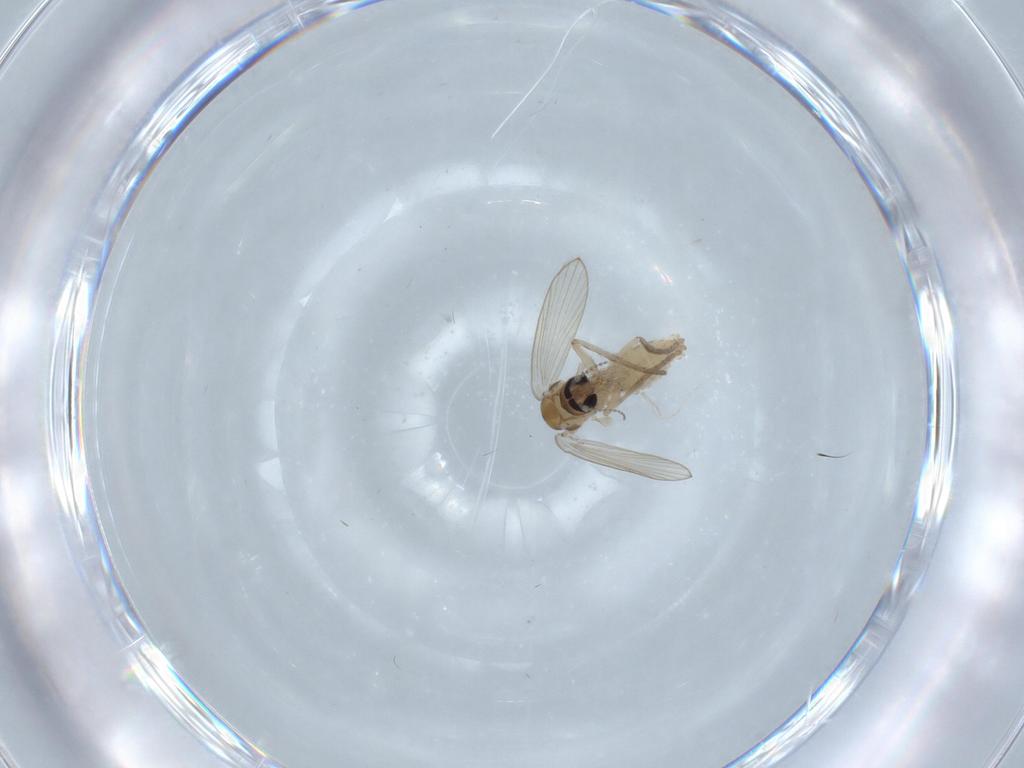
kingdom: Animalia
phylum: Arthropoda
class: Insecta
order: Diptera
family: Psychodidae
